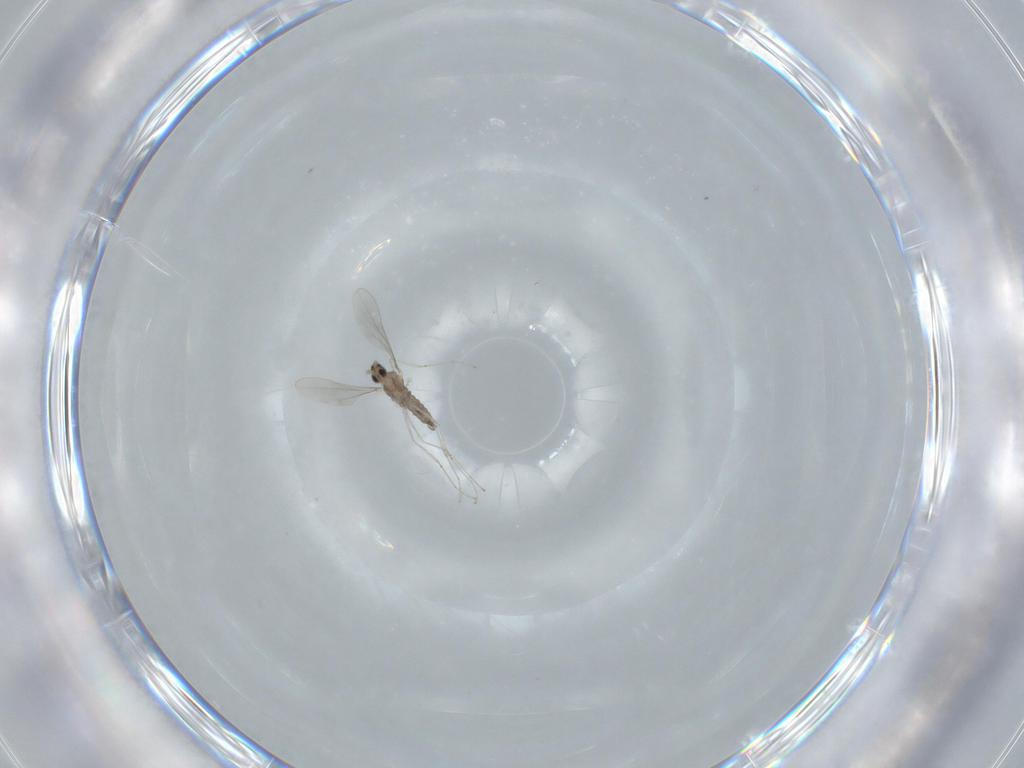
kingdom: Animalia
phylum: Arthropoda
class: Insecta
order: Diptera
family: Cecidomyiidae
